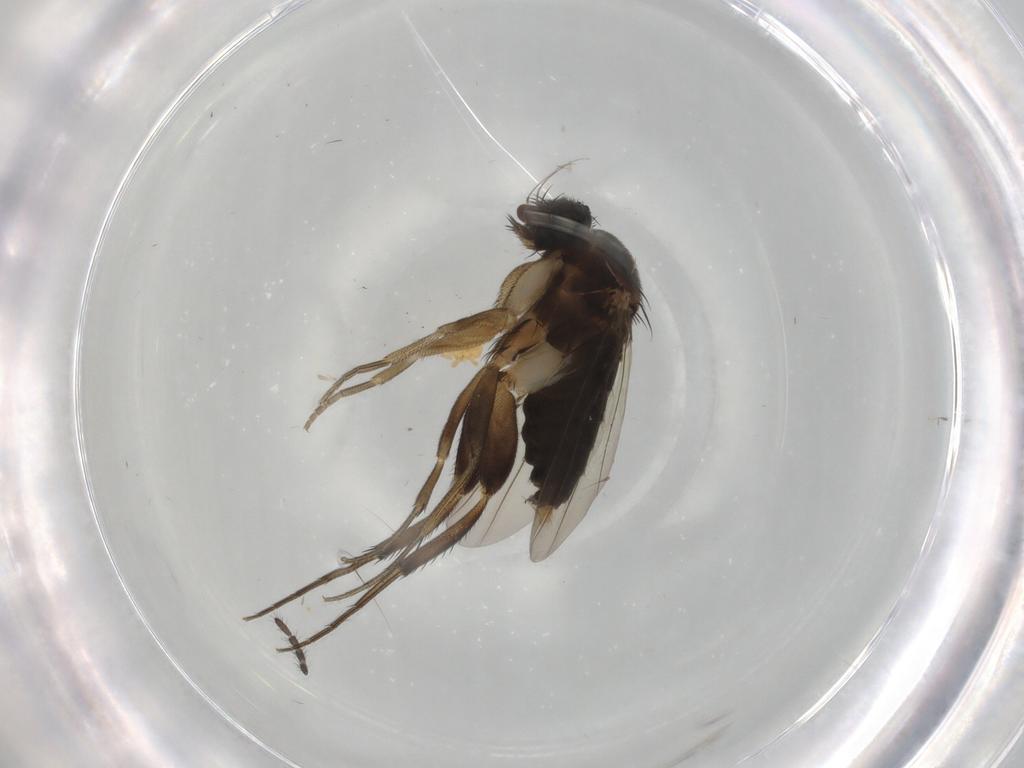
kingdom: Animalia
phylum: Arthropoda
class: Insecta
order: Diptera
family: Phoridae
